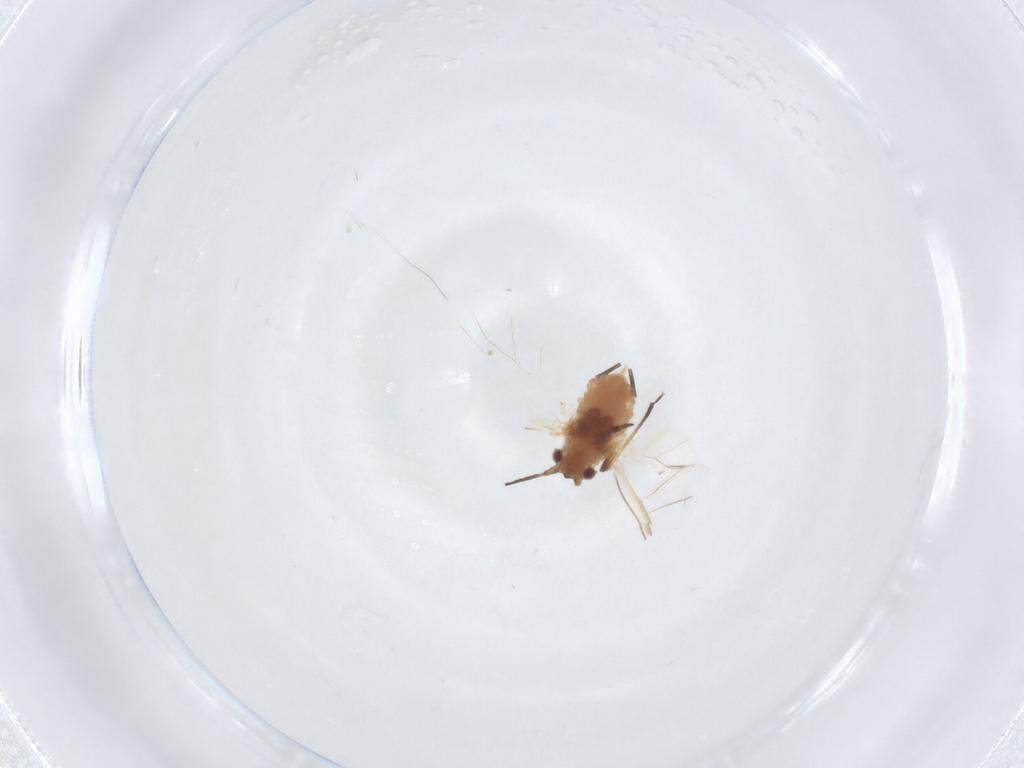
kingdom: Animalia
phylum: Arthropoda
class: Insecta
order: Hemiptera
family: Aphididae
